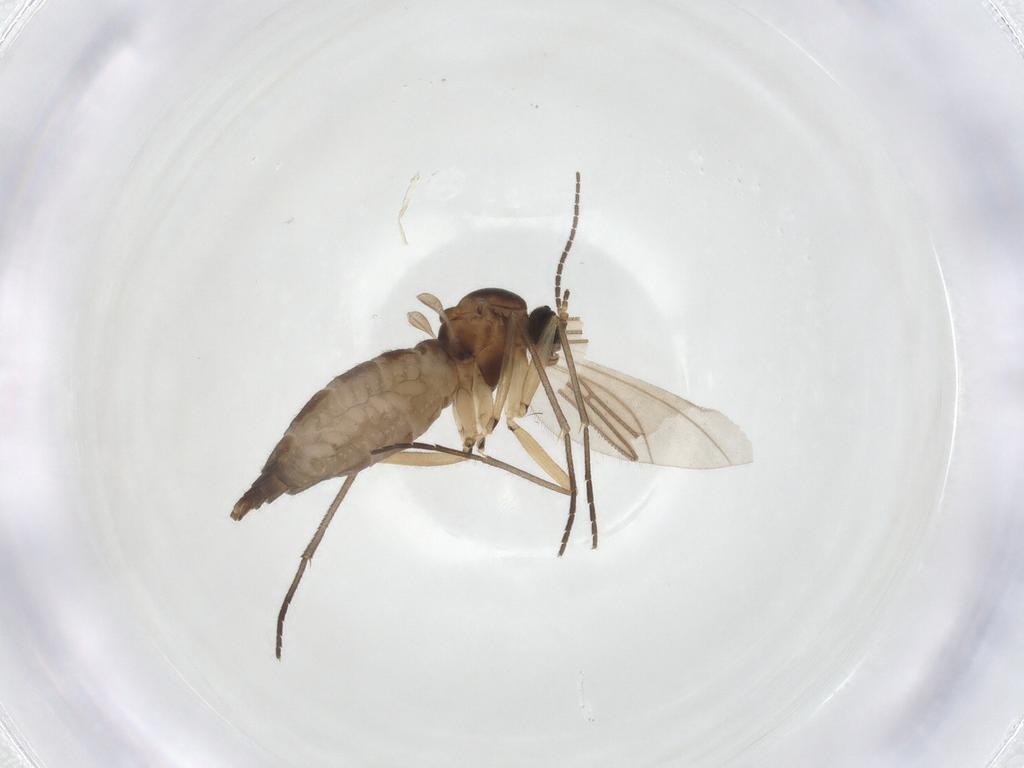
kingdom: Animalia
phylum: Arthropoda
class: Insecta
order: Diptera
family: Sciaridae
